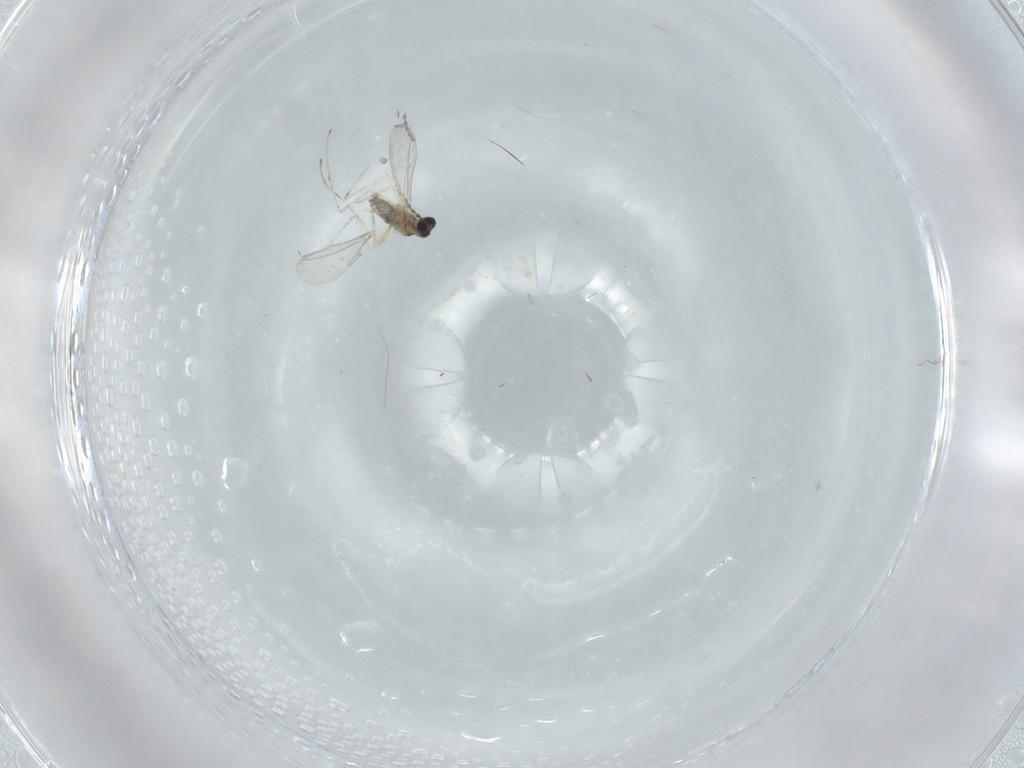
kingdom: Animalia
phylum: Arthropoda
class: Insecta
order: Diptera
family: Cecidomyiidae
